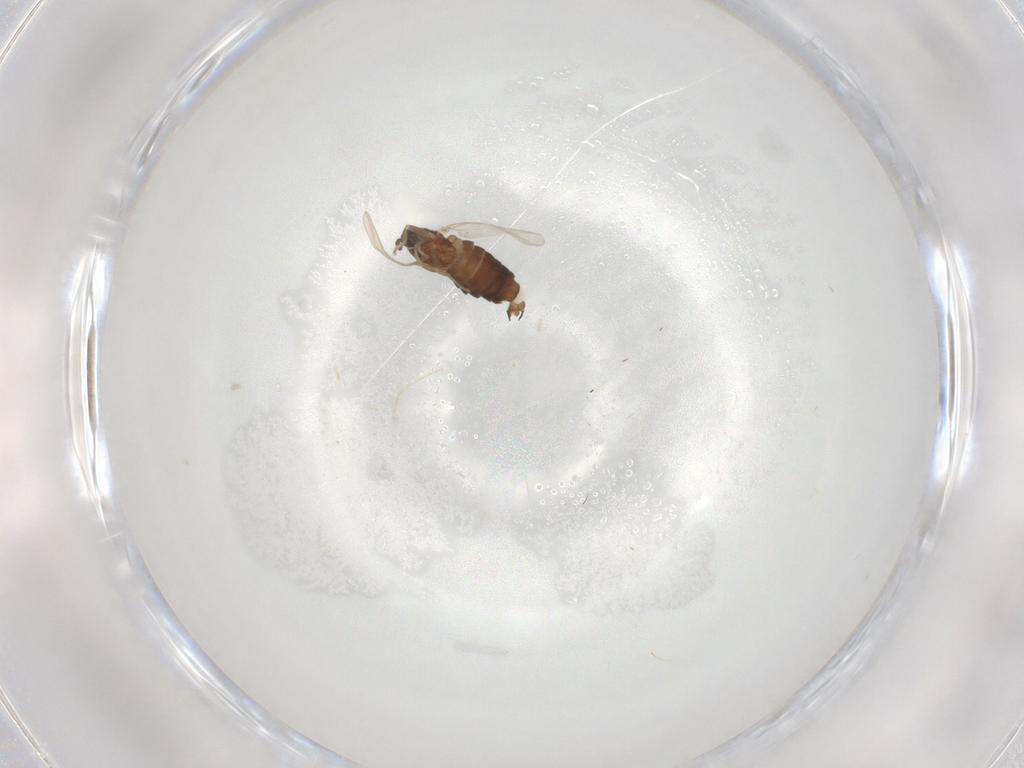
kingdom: Animalia
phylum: Arthropoda
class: Insecta
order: Diptera
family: Scatopsidae
